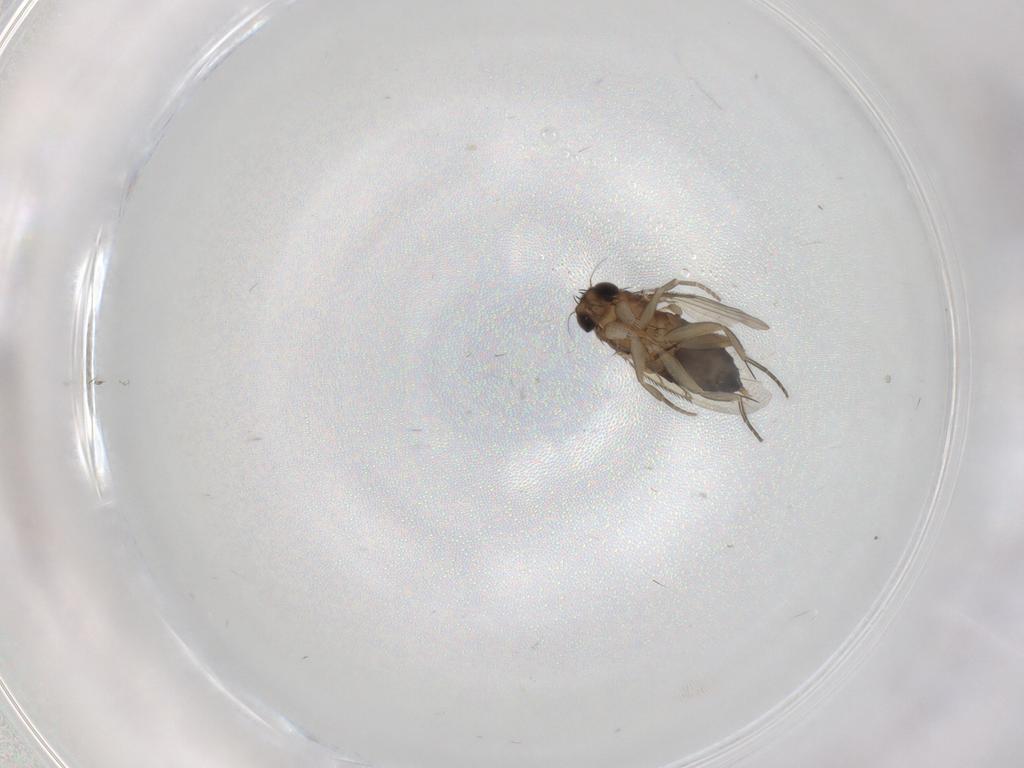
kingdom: Animalia
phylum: Arthropoda
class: Insecta
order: Diptera
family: Cecidomyiidae
